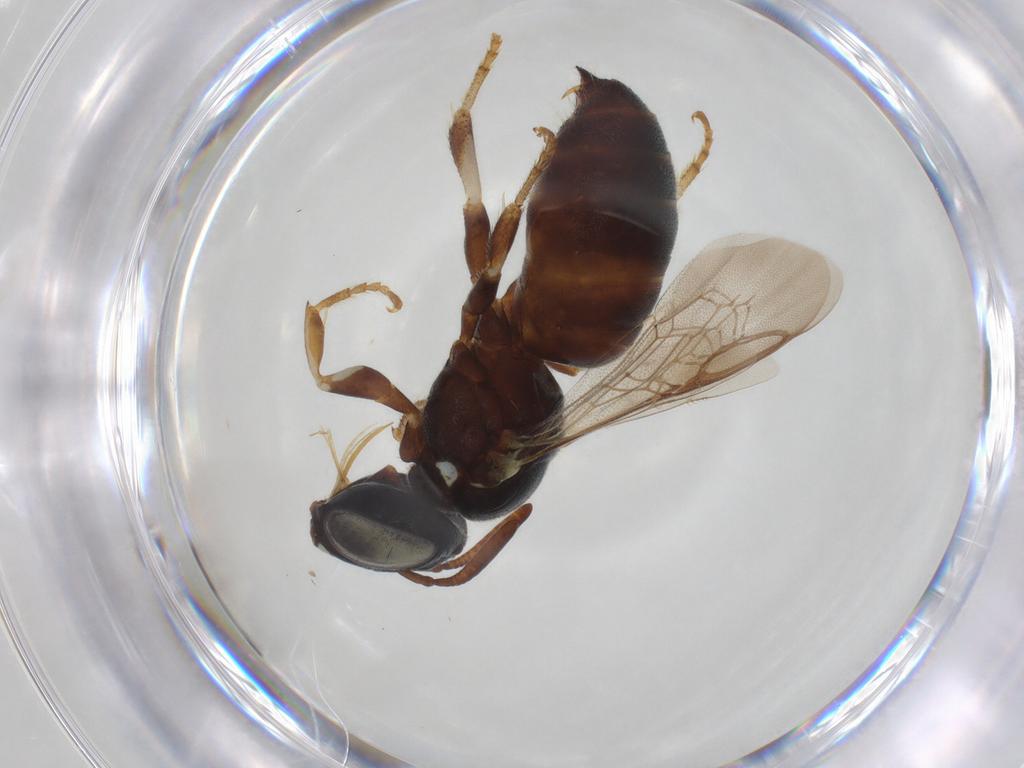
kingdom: Animalia
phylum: Arthropoda
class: Insecta
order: Hymenoptera
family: Apidae
